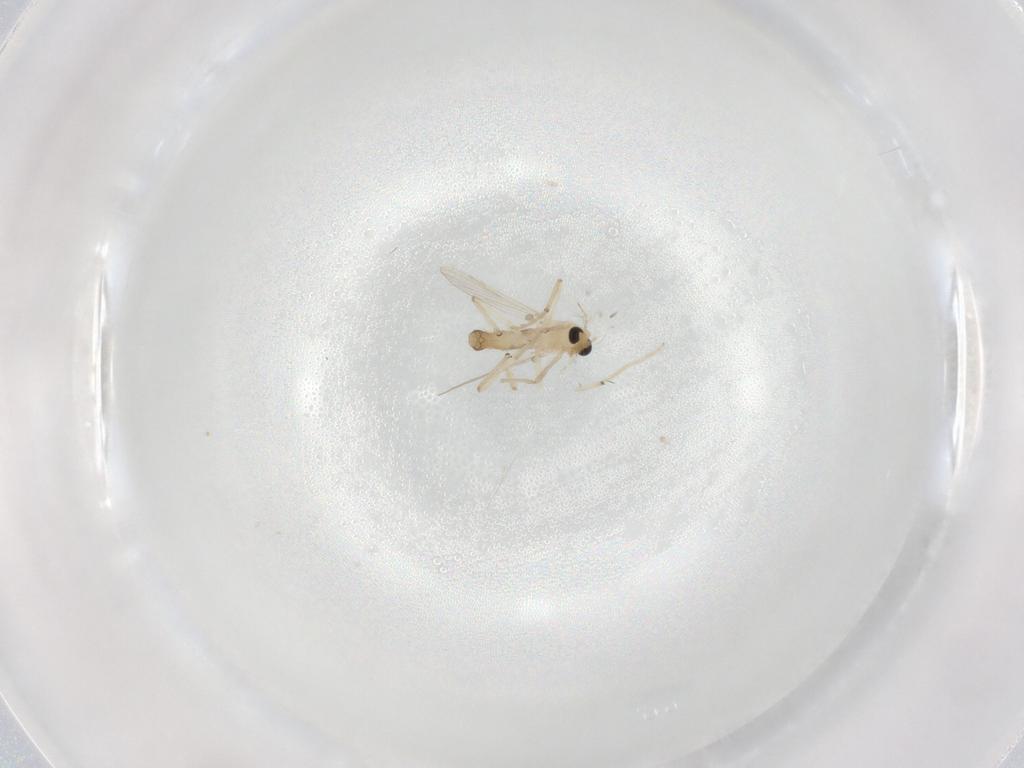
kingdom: Animalia
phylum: Arthropoda
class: Insecta
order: Diptera
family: Chironomidae
